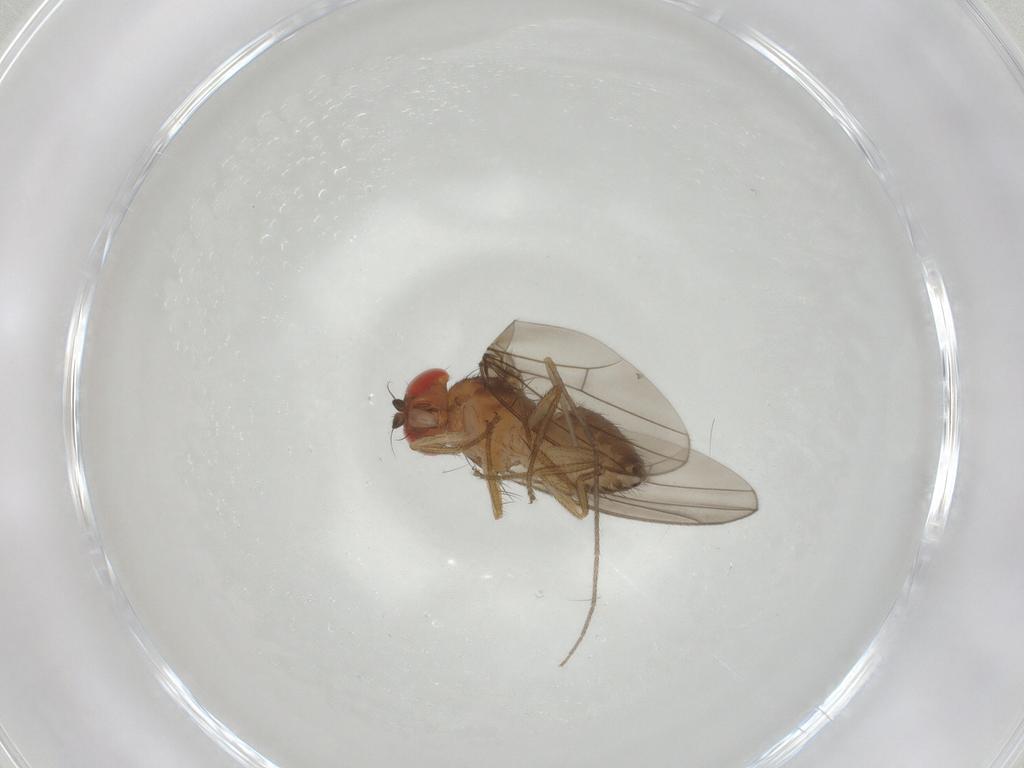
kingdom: Animalia
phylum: Arthropoda
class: Insecta
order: Diptera
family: Drosophilidae
